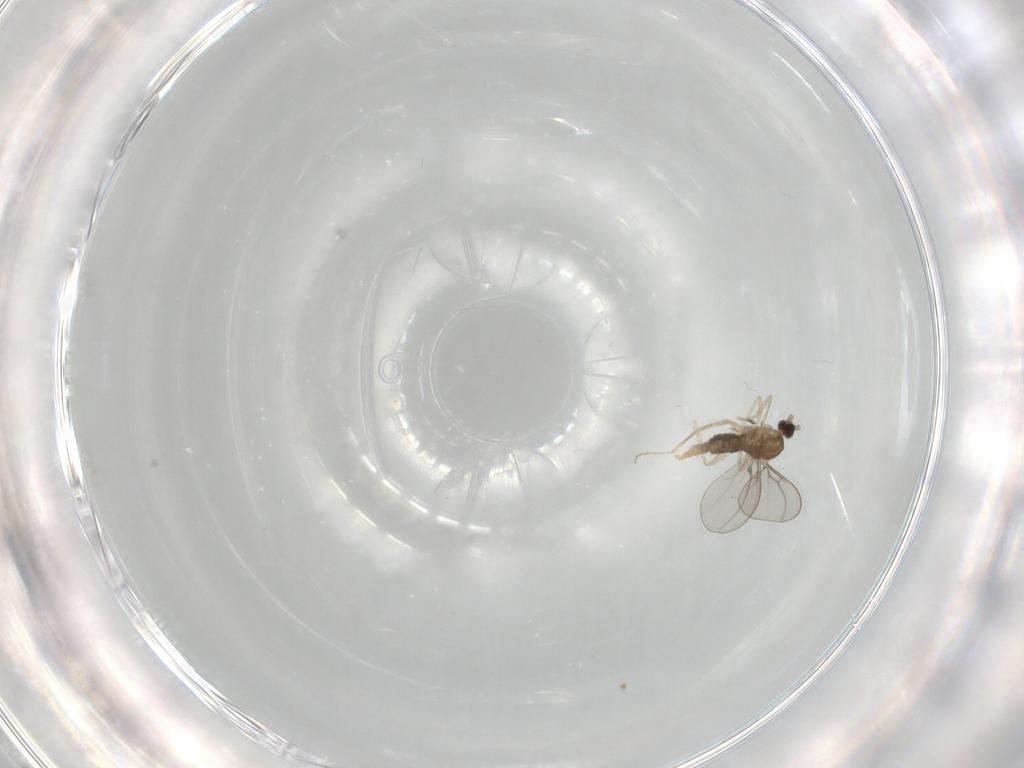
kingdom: Animalia
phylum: Arthropoda
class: Insecta
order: Diptera
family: Cecidomyiidae
